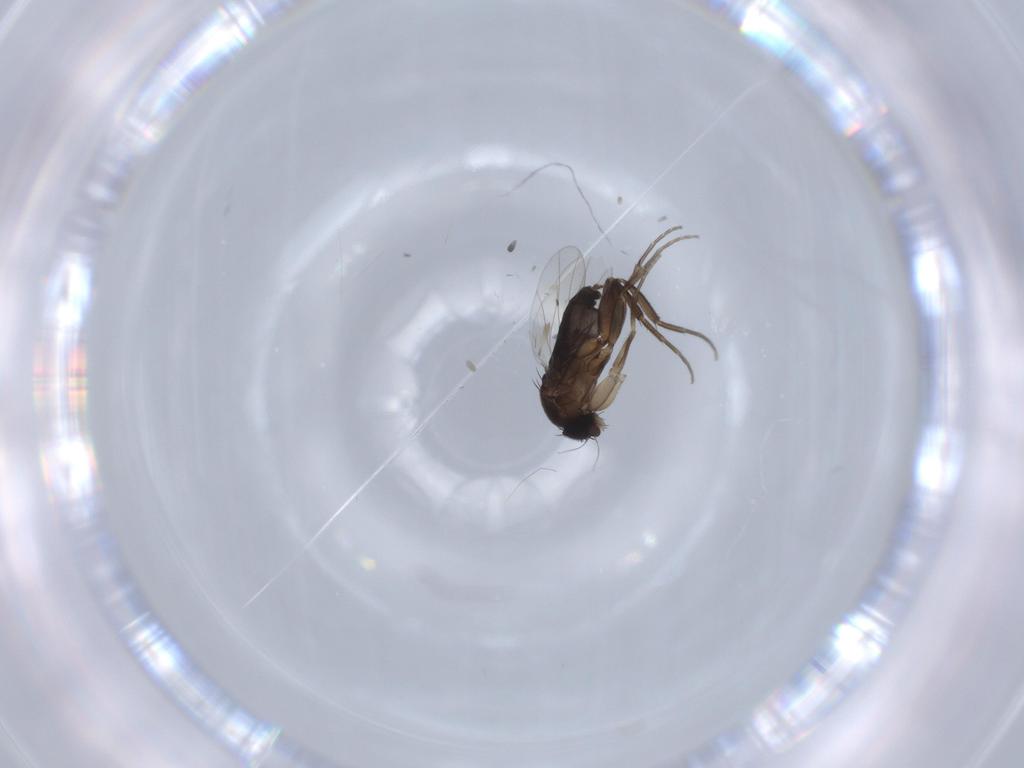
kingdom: Animalia
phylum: Arthropoda
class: Insecta
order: Diptera
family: Phoridae
